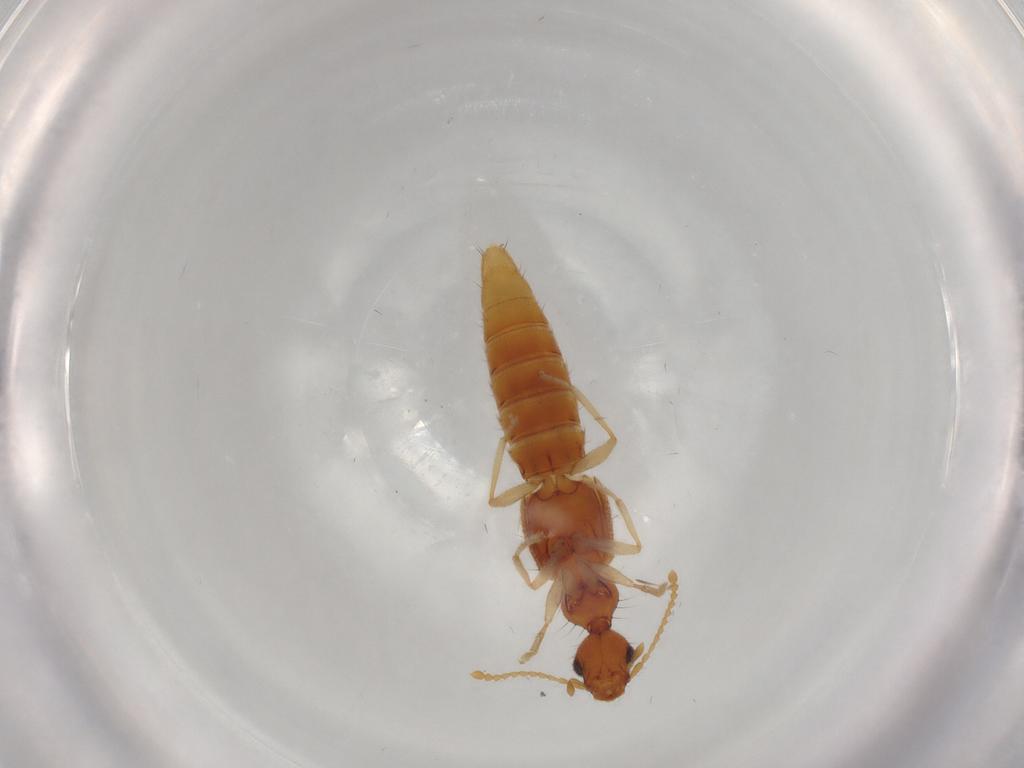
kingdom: Animalia
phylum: Arthropoda
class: Insecta
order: Coleoptera
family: Staphylinidae
